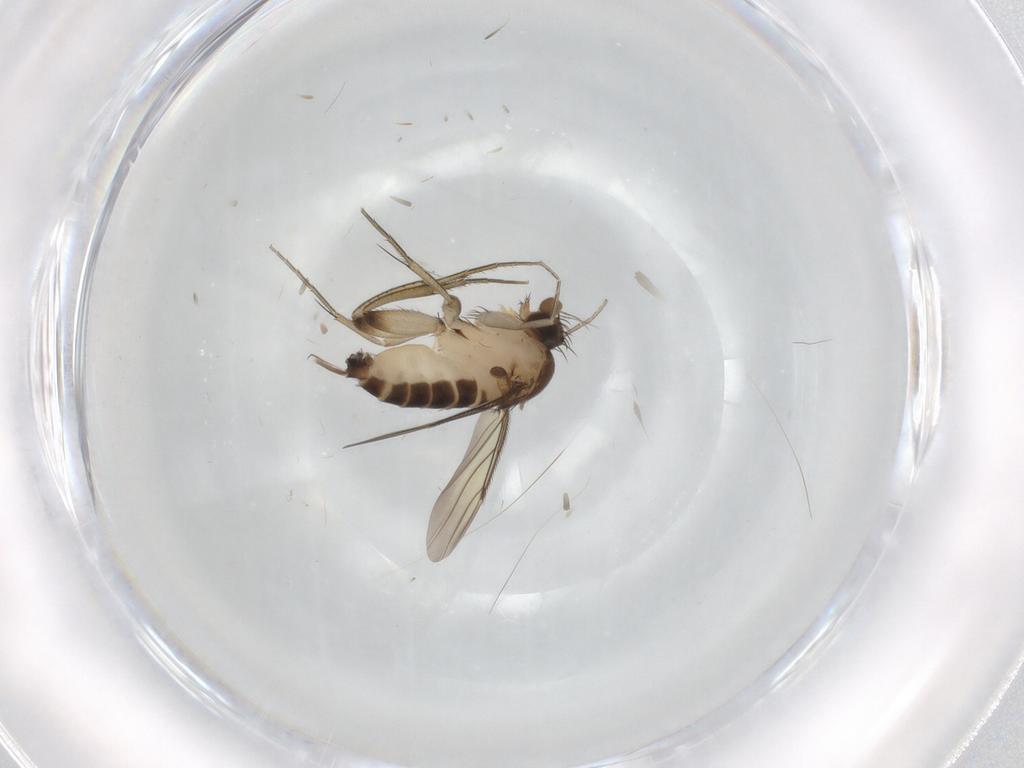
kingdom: Animalia
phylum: Arthropoda
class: Insecta
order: Diptera
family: Phoridae
